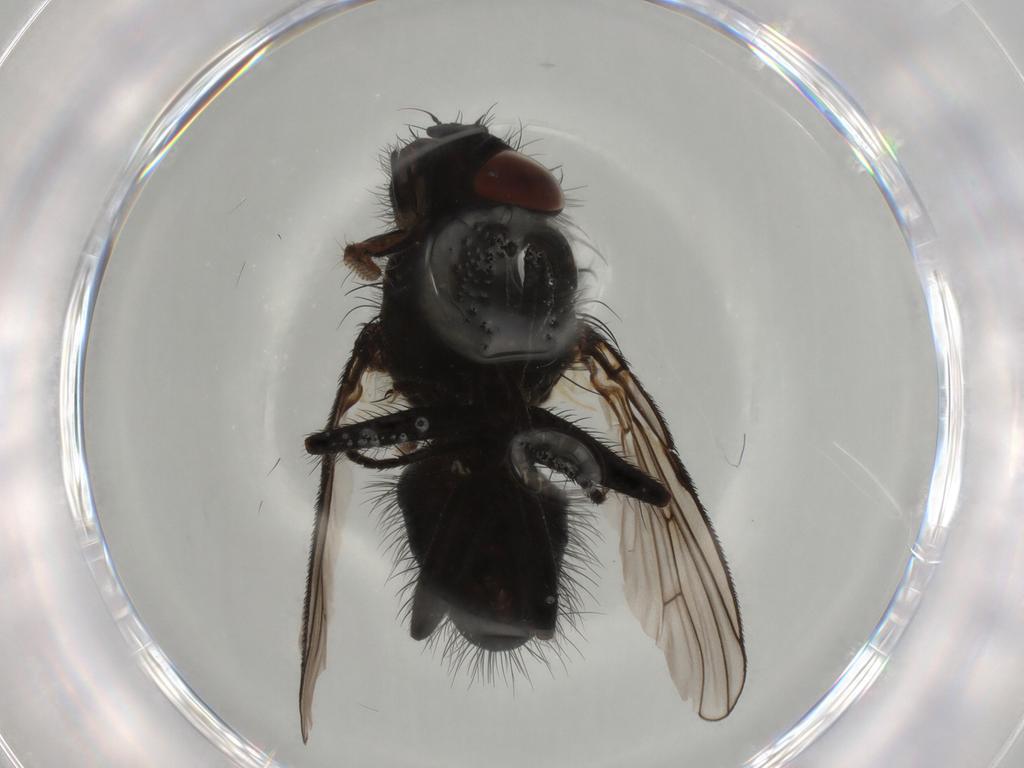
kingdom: Animalia
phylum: Arthropoda
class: Insecta
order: Diptera
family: Muscidae
